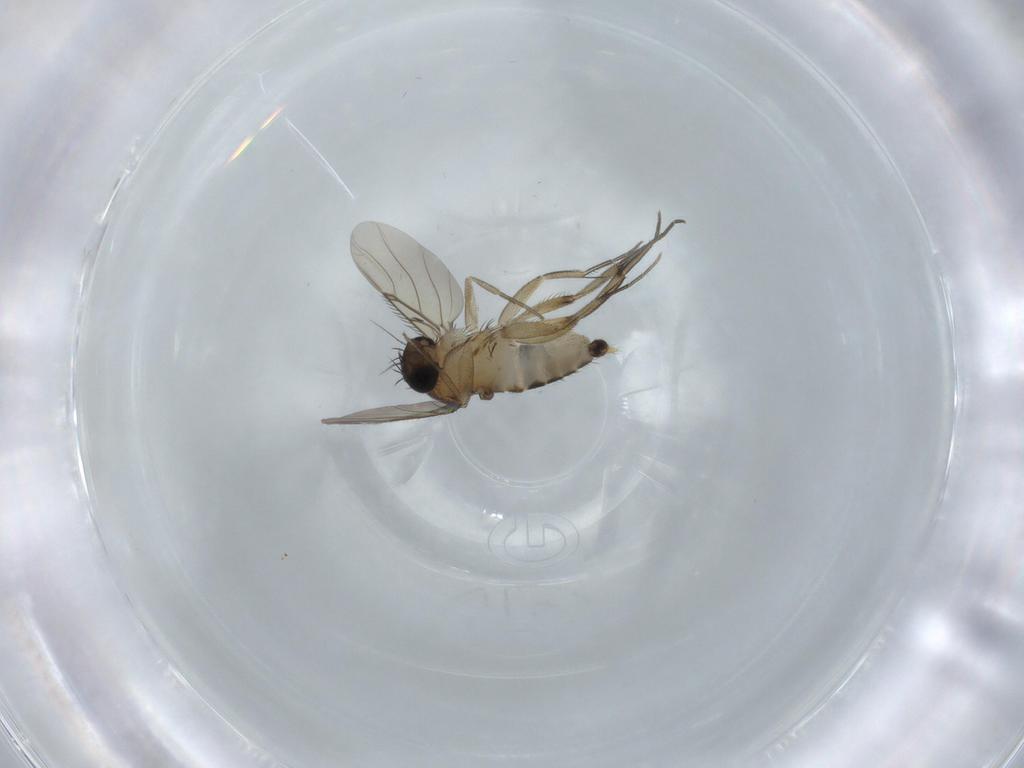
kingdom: Animalia
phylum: Arthropoda
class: Insecta
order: Diptera
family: Phoridae
